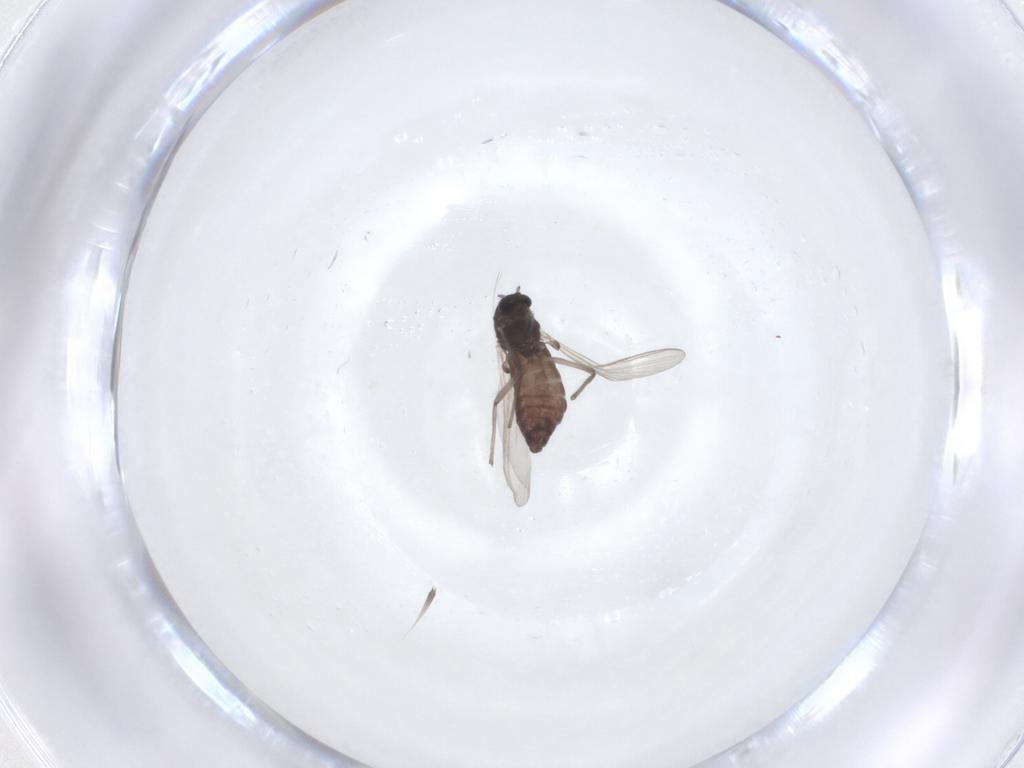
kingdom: Animalia
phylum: Arthropoda
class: Insecta
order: Diptera
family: Chironomidae
